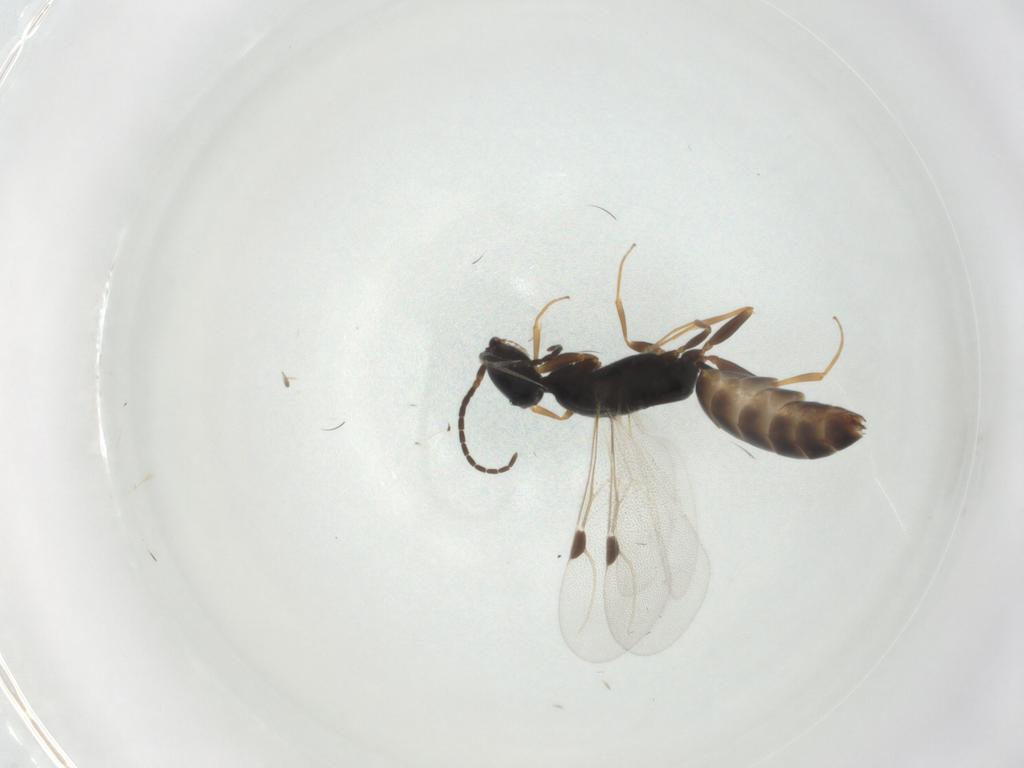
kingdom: Animalia
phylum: Arthropoda
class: Insecta
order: Hymenoptera
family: Bethylidae
